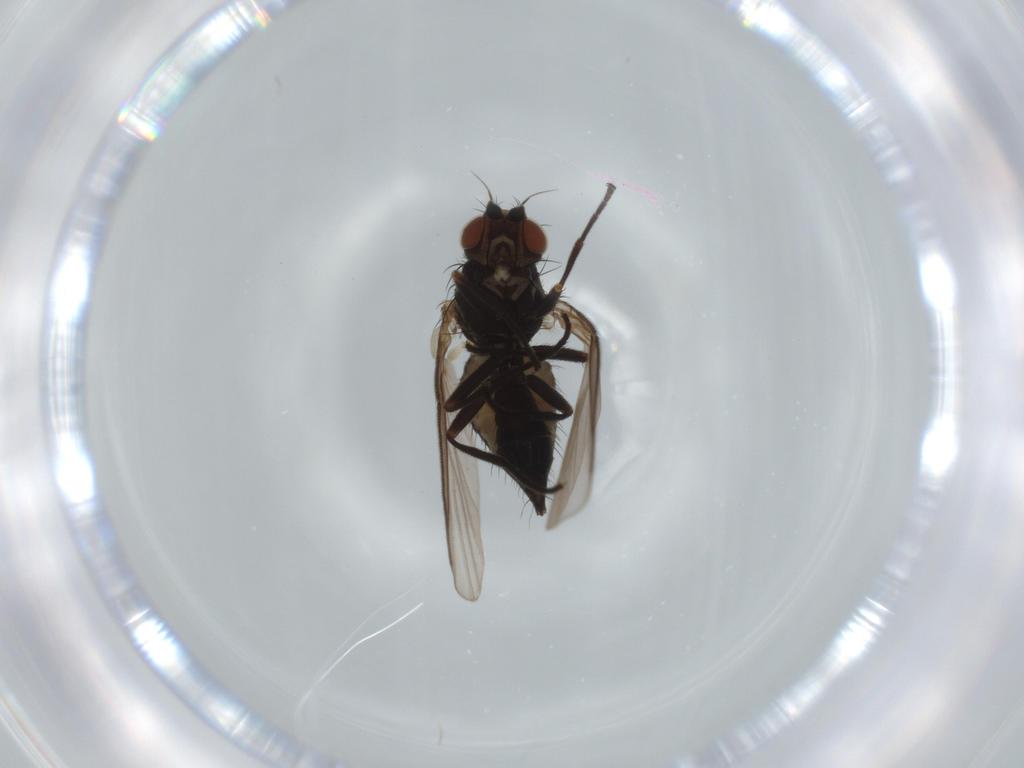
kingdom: Animalia
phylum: Arthropoda
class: Insecta
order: Diptera
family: Agromyzidae
